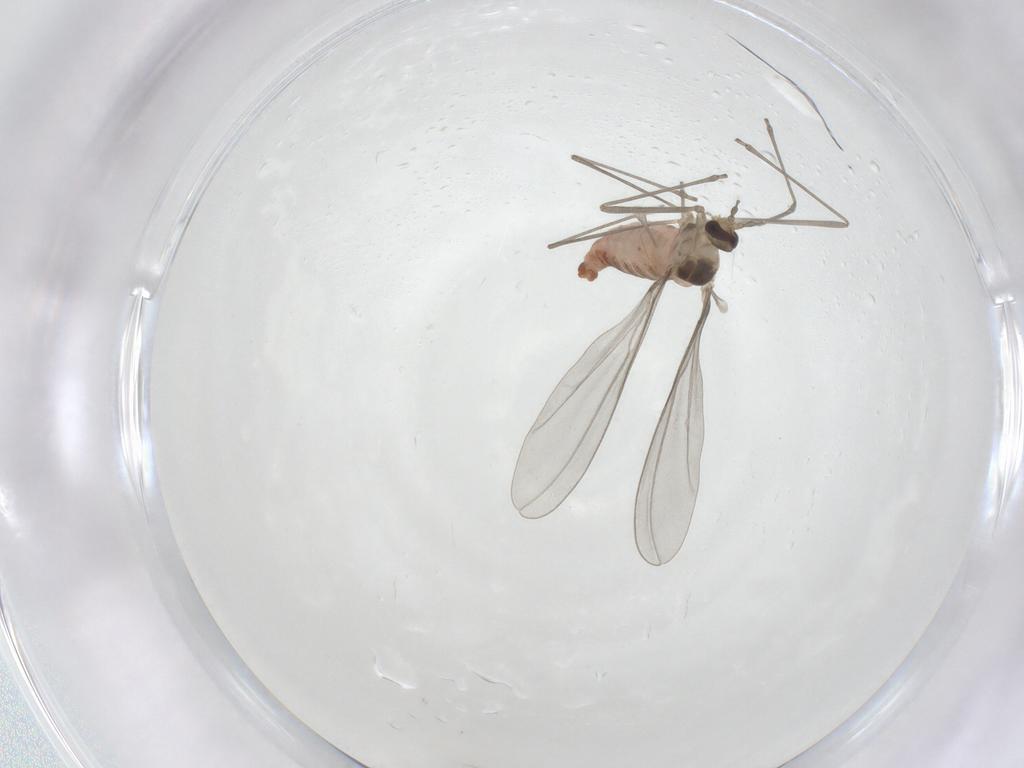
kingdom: Animalia
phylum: Arthropoda
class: Insecta
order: Diptera
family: Cecidomyiidae
